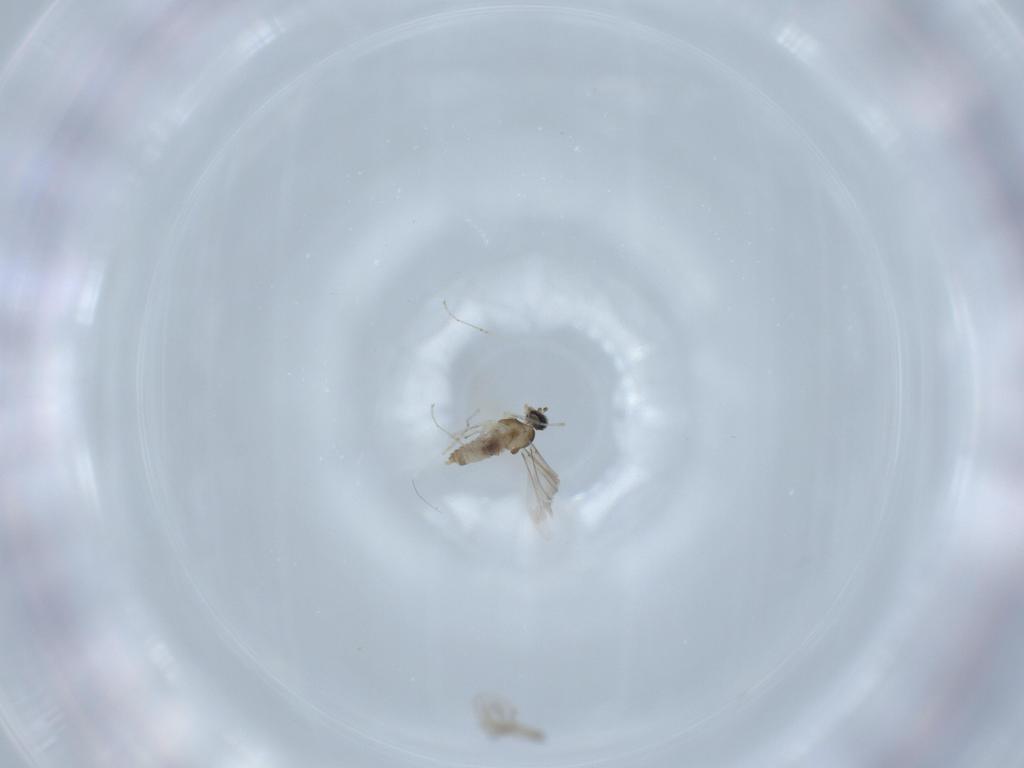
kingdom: Animalia
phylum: Arthropoda
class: Insecta
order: Diptera
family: Cecidomyiidae
